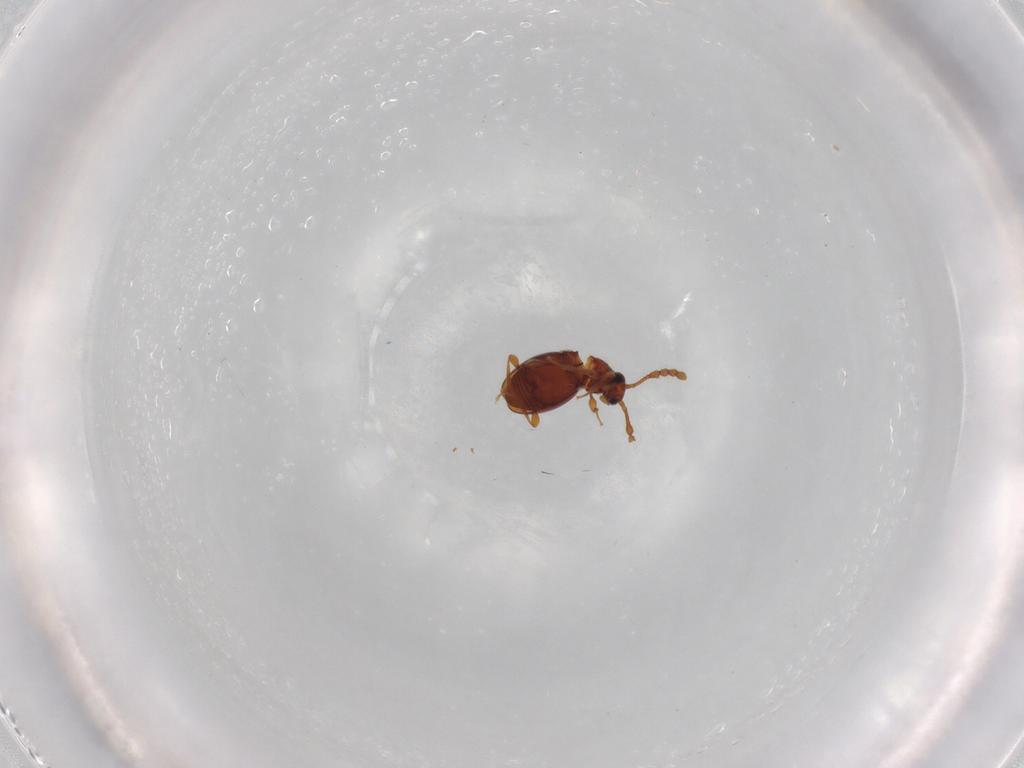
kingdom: Animalia
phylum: Arthropoda
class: Insecta
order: Coleoptera
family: Staphylinidae
